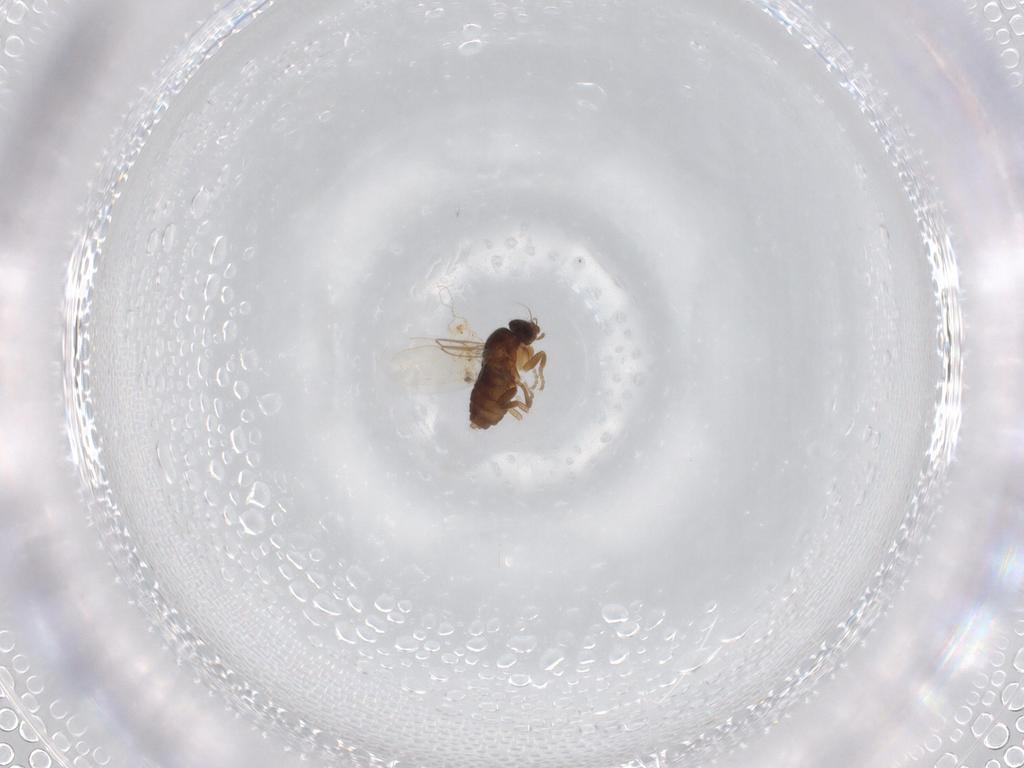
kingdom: Animalia
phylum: Arthropoda
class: Insecta
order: Diptera
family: Phoridae
